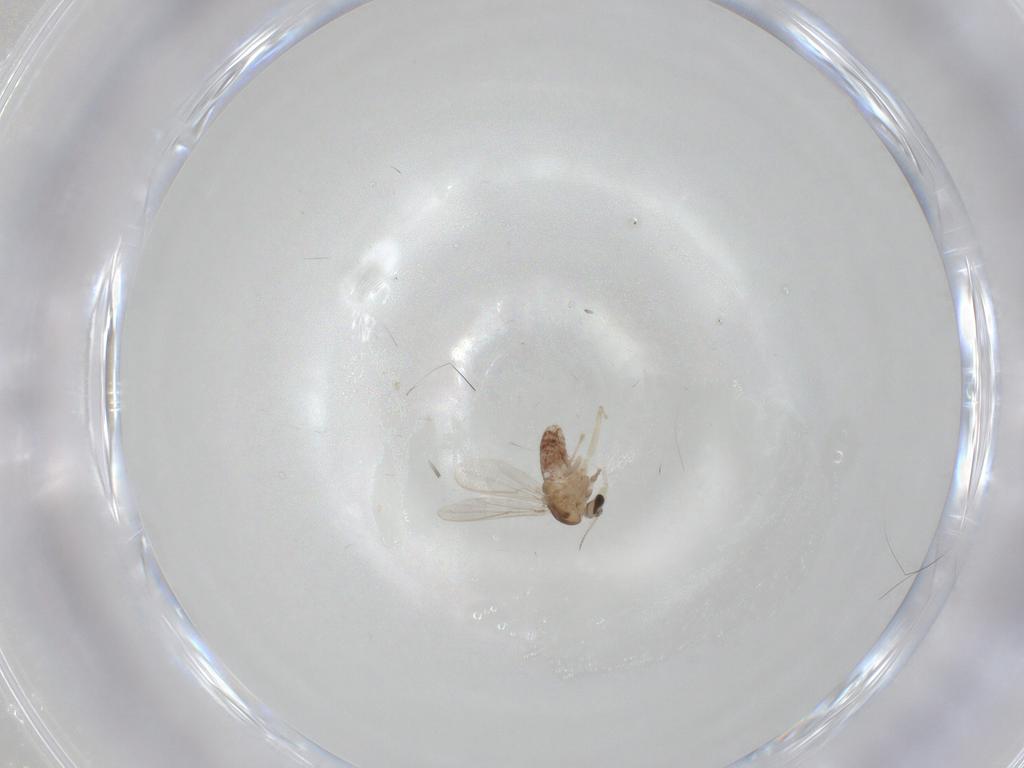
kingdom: Animalia
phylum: Arthropoda
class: Insecta
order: Diptera
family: Chironomidae
